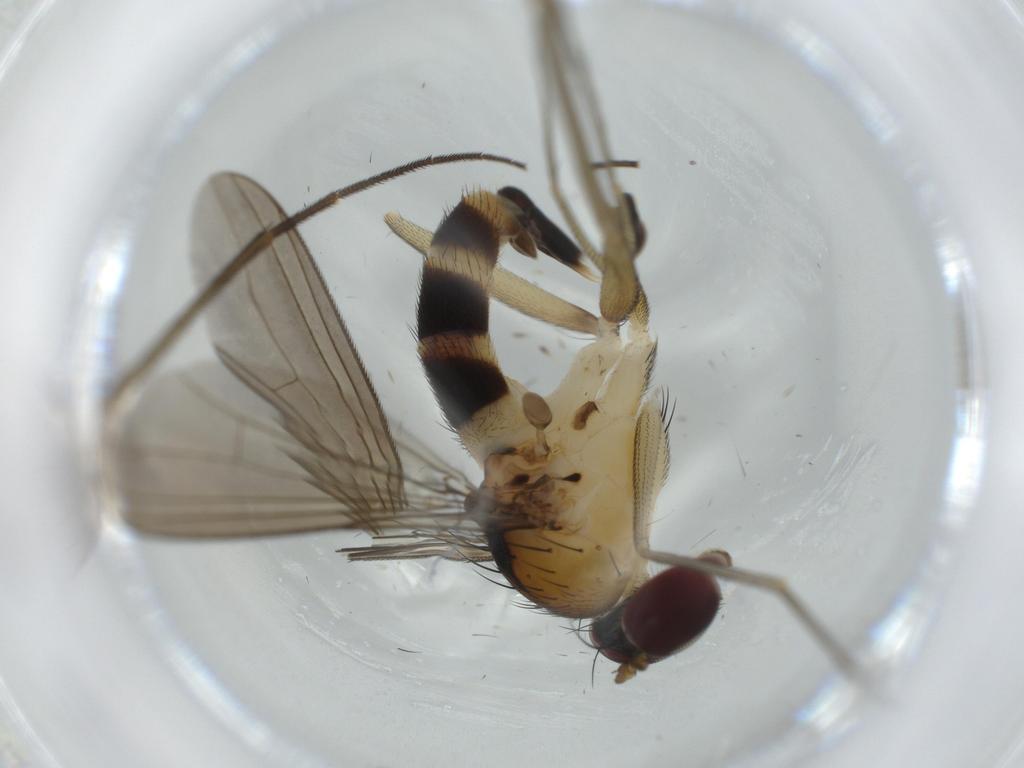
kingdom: Animalia
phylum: Arthropoda
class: Insecta
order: Diptera
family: Dolichopodidae
